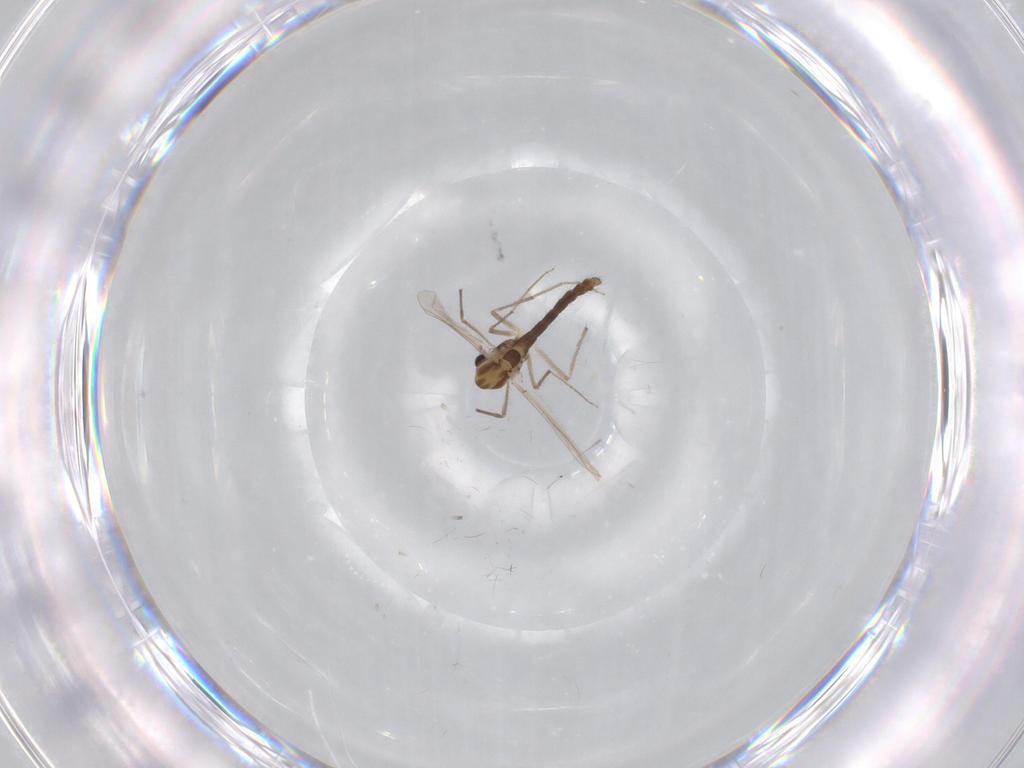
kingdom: Animalia
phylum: Arthropoda
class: Insecta
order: Diptera
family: Chironomidae
